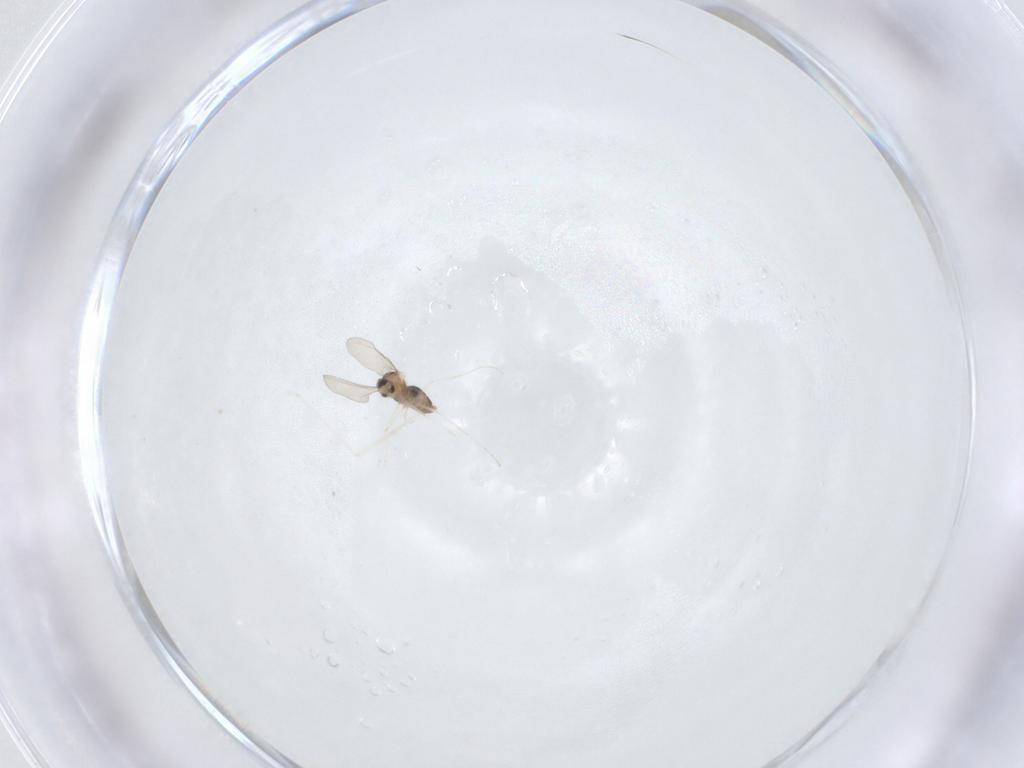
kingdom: Animalia
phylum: Arthropoda
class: Insecta
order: Diptera
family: Cecidomyiidae
